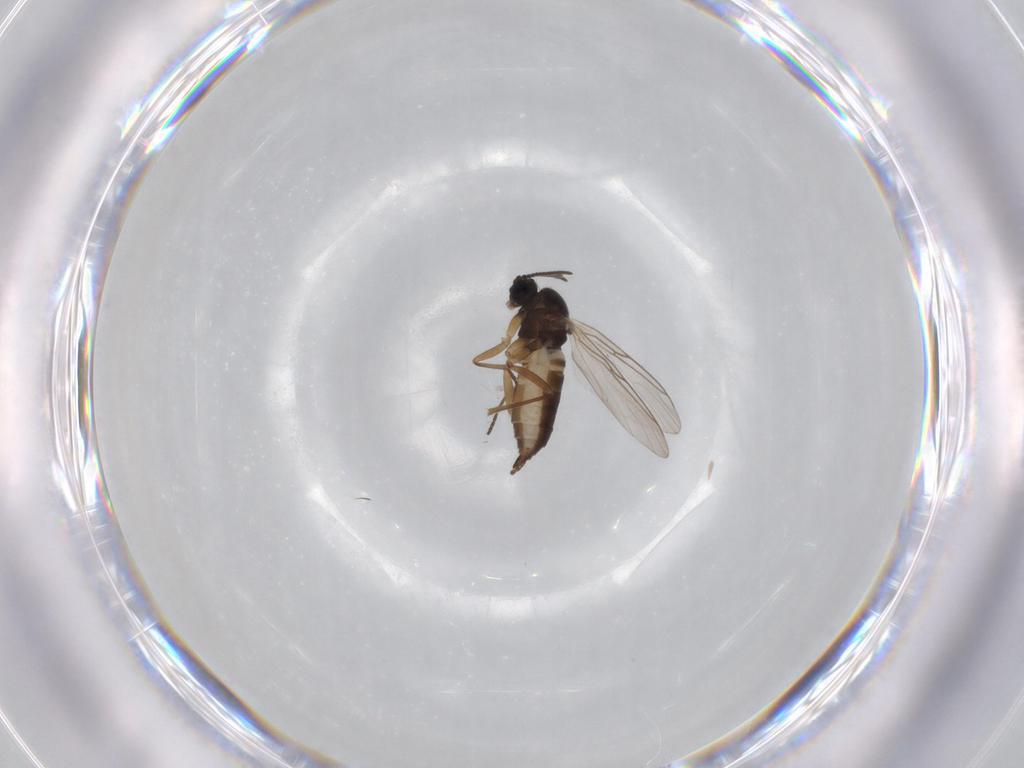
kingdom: Animalia
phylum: Arthropoda
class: Insecta
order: Diptera
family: Sciaridae
